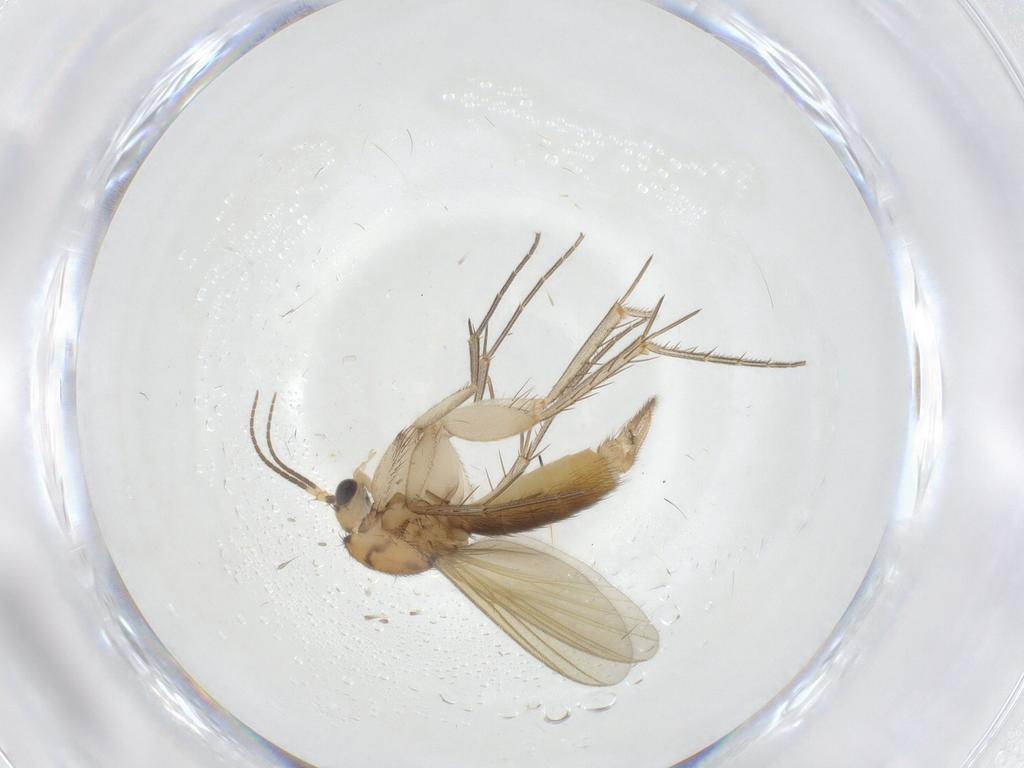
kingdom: Animalia
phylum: Arthropoda
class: Insecta
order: Diptera
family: Mycetophilidae
